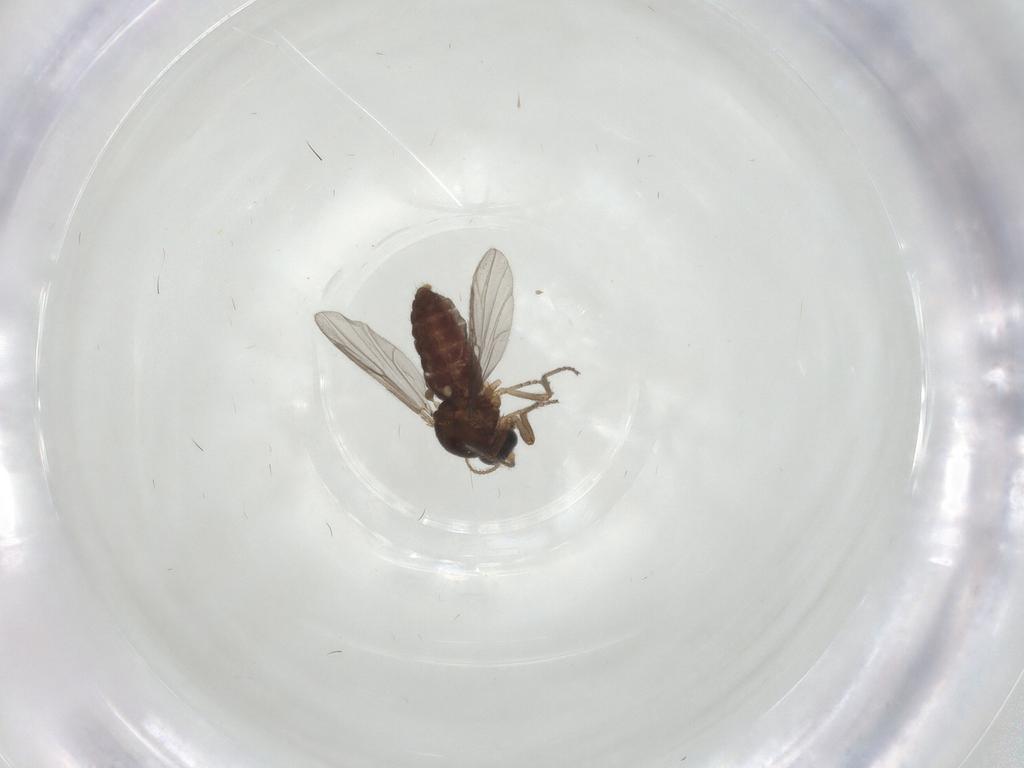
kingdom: Animalia
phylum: Arthropoda
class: Insecta
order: Diptera
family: Ceratopogonidae
